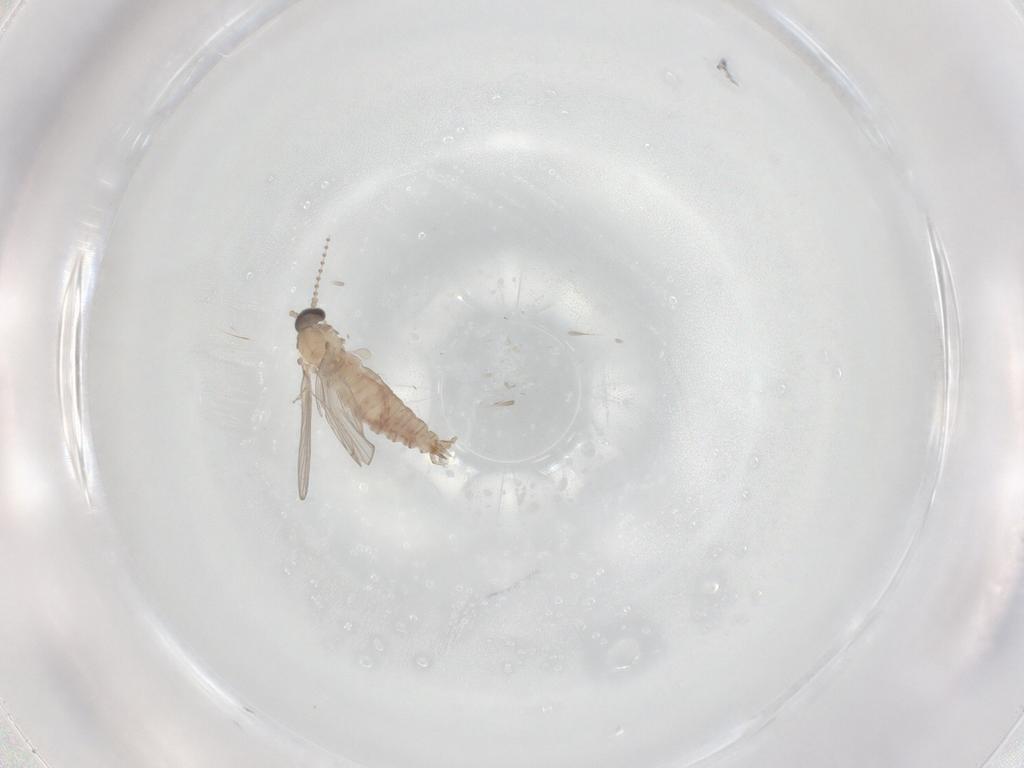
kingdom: Animalia
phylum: Arthropoda
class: Insecta
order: Diptera
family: Psychodidae
